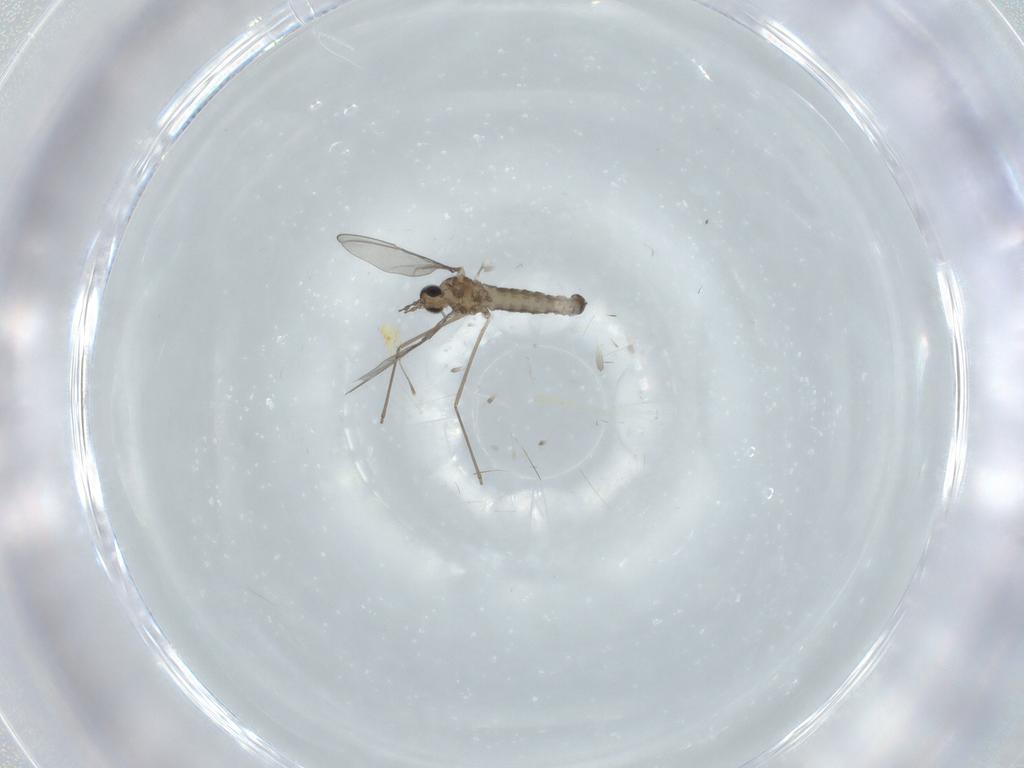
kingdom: Animalia
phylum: Arthropoda
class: Insecta
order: Diptera
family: Cecidomyiidae
